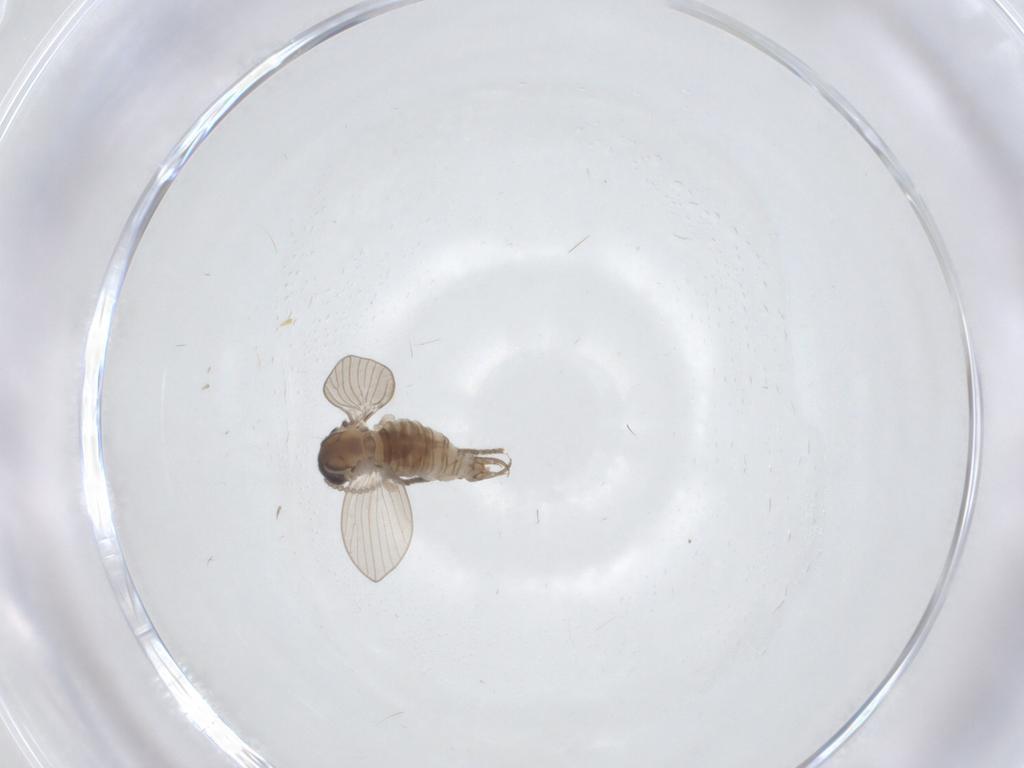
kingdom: Animalia
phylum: Arthropoda
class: Insecta
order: Diptera
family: Psychodidae
